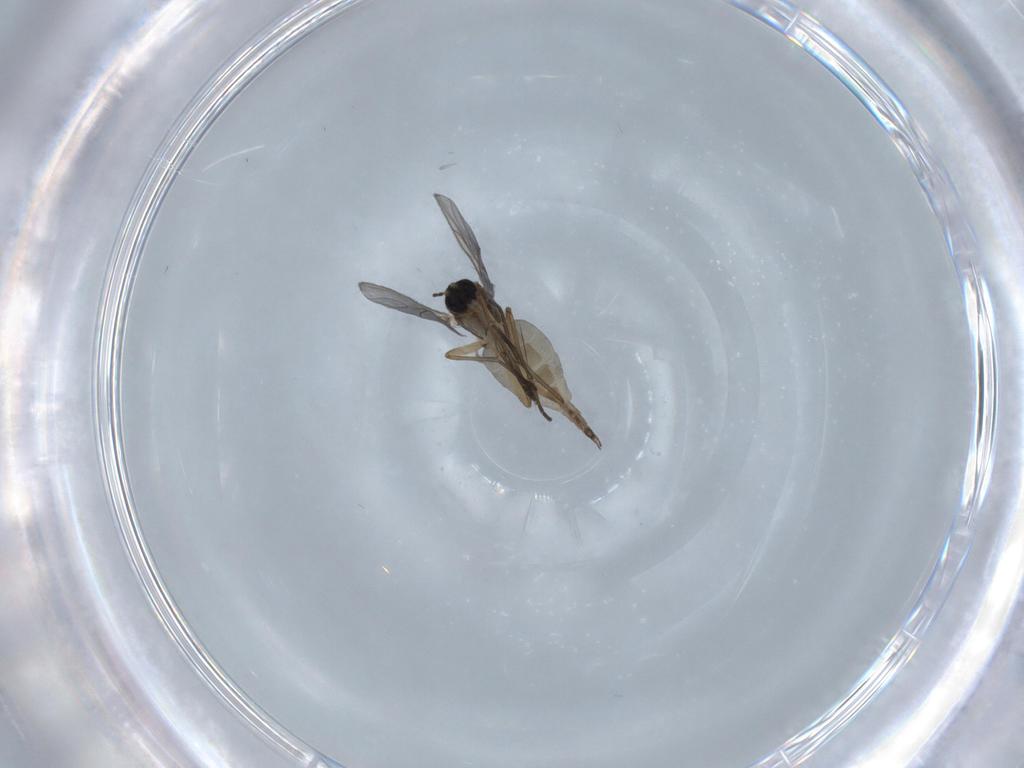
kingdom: Animalia
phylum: Arthropoda
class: Insecta
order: Diptera
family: Sciaridae
